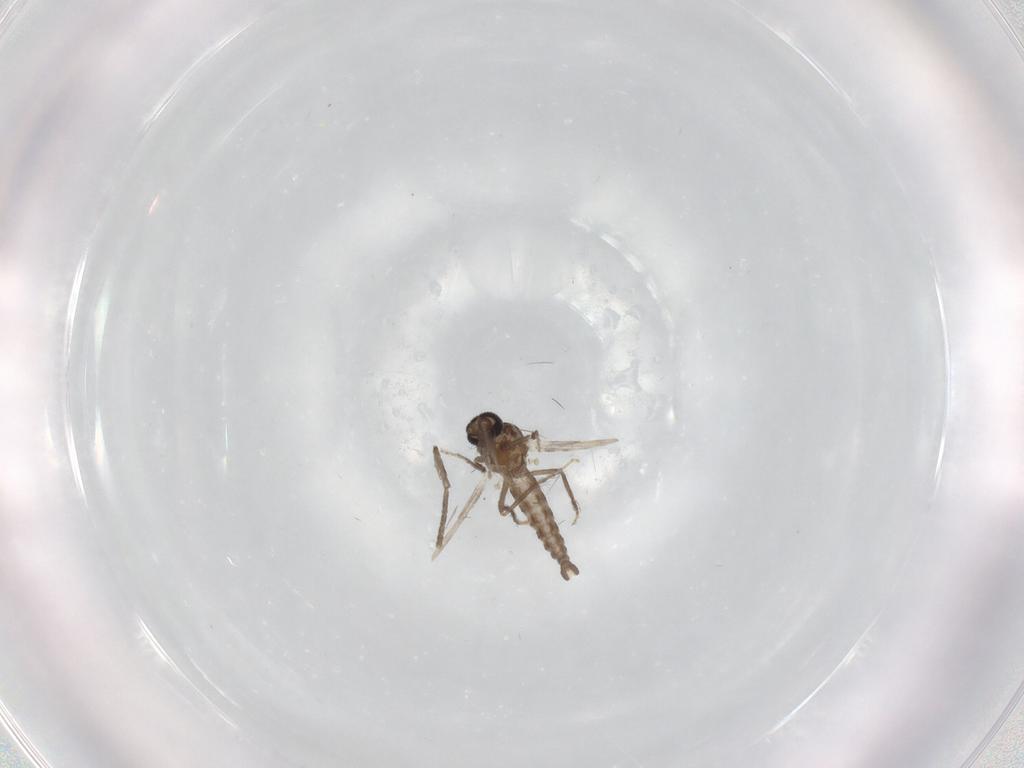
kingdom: Animalia
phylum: Arthropoda
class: Insecta
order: Diptera
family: Ceratopogonidae
